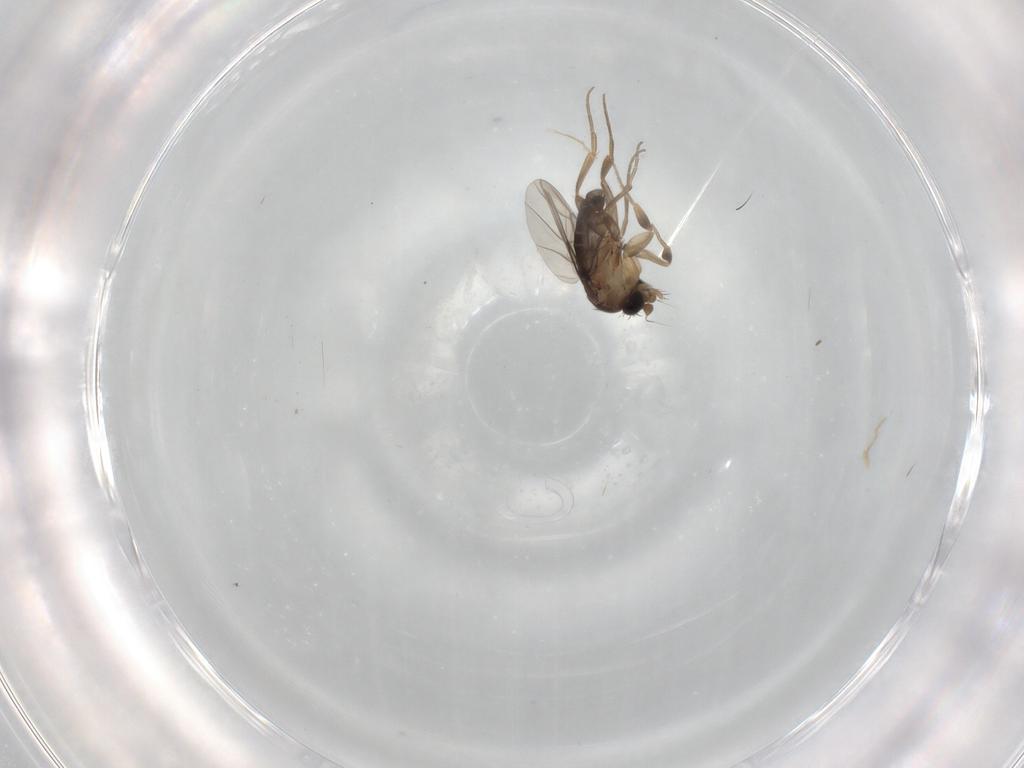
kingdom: Animalia
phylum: Arthropoda
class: Insecta
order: Diptera
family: Phoridae
